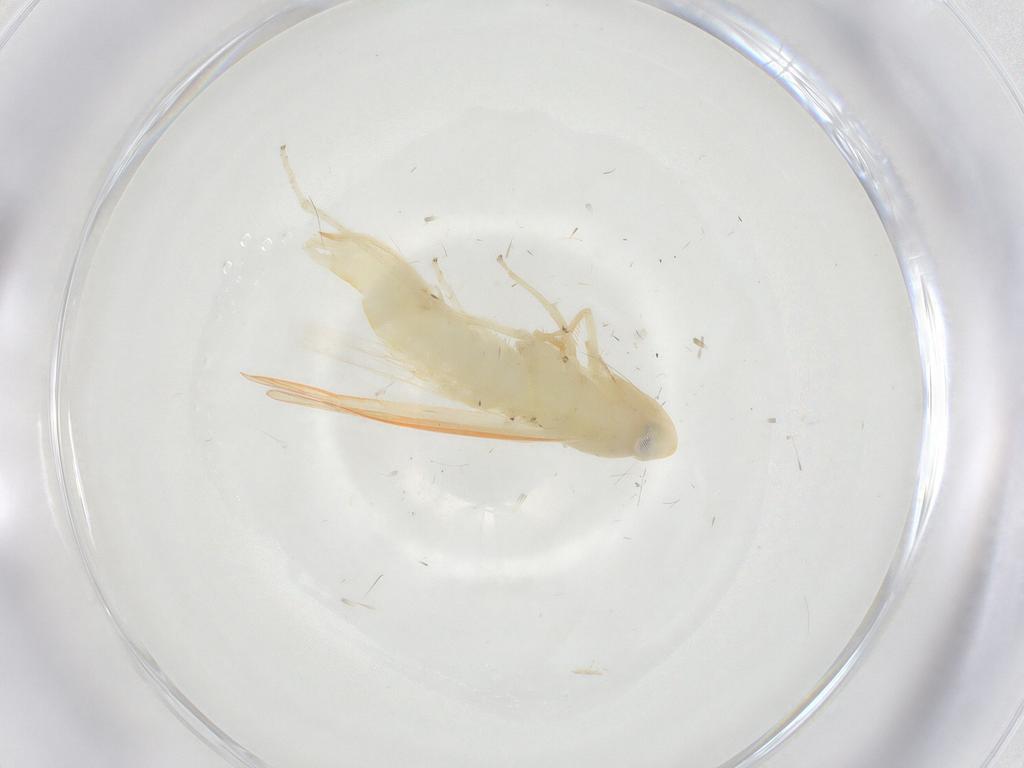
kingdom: Animalia
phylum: Arthropoda
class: Insecta
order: Hemiptera
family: Cicadellidae
